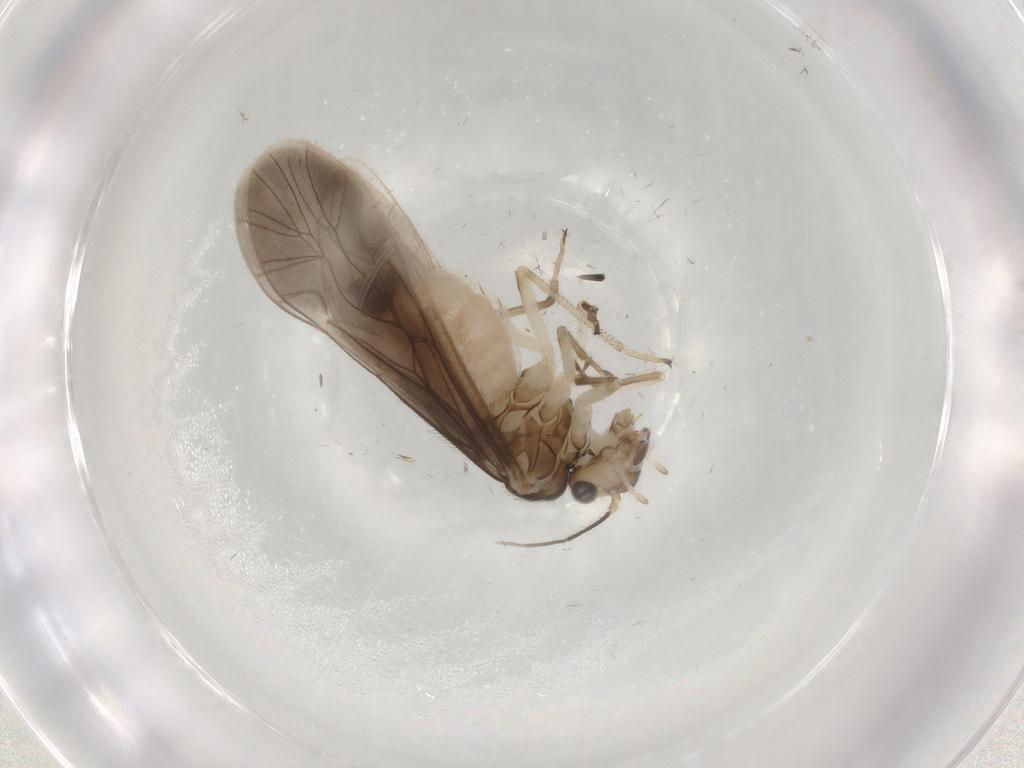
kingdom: Animalia
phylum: Arthropoda
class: Insecta
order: Psocodea
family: Caeciliusidae
